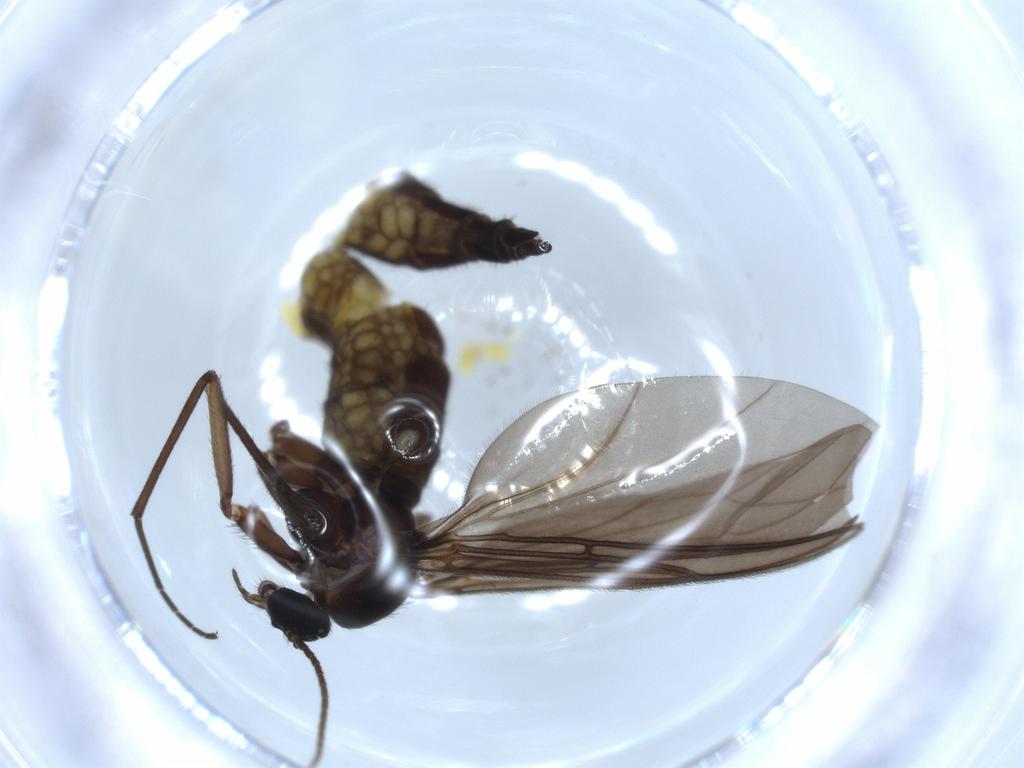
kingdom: Animalia
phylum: Arthropoda
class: Insecta
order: Diptera
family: Sciaridae
